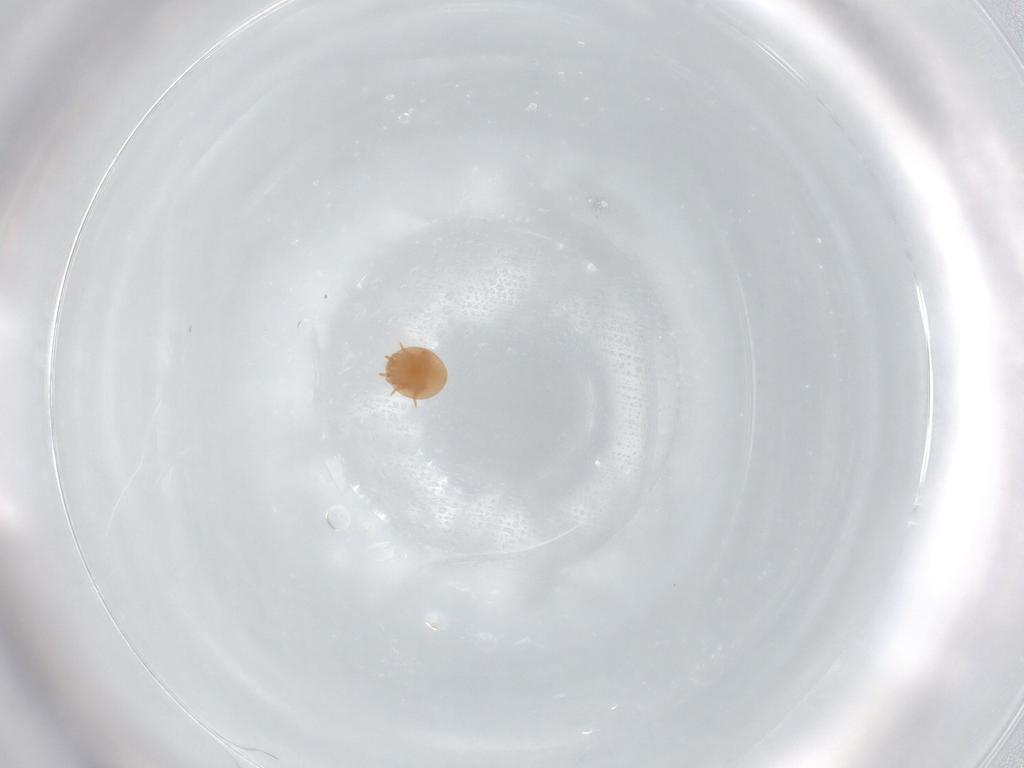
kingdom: Animalia
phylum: Arthropoda
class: Arachnida
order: Mesostigmata
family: Trematuridae
